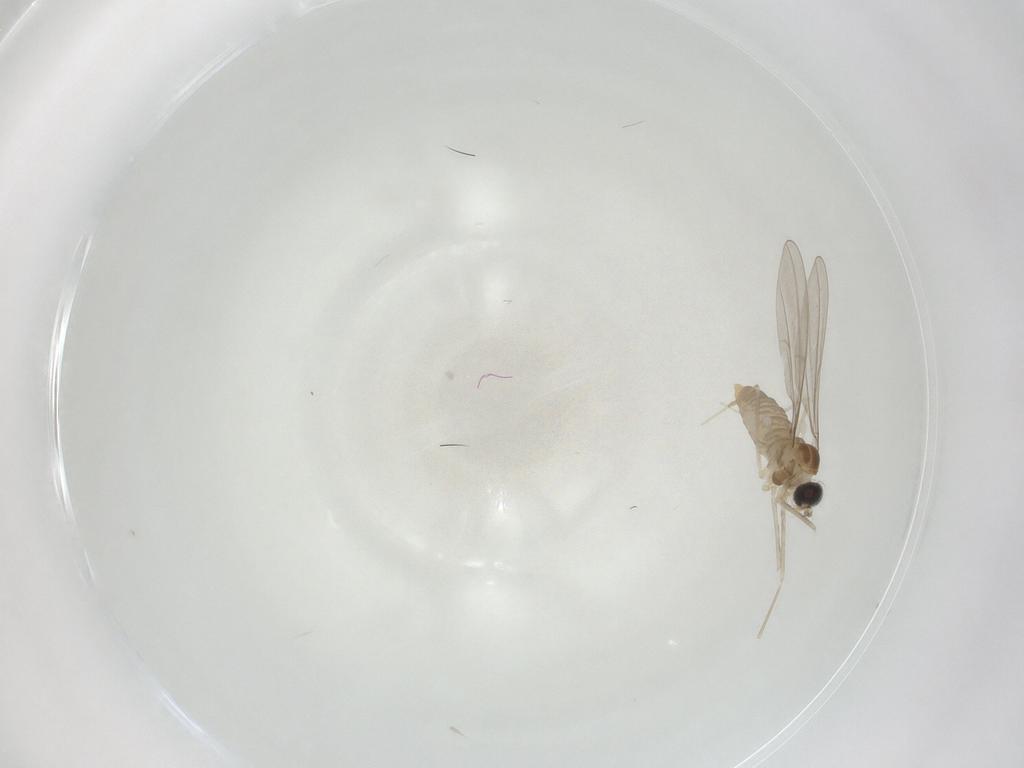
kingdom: Animalia
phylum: Arthropoda
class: Insecta
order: Diptera
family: Cecidomyiidae
